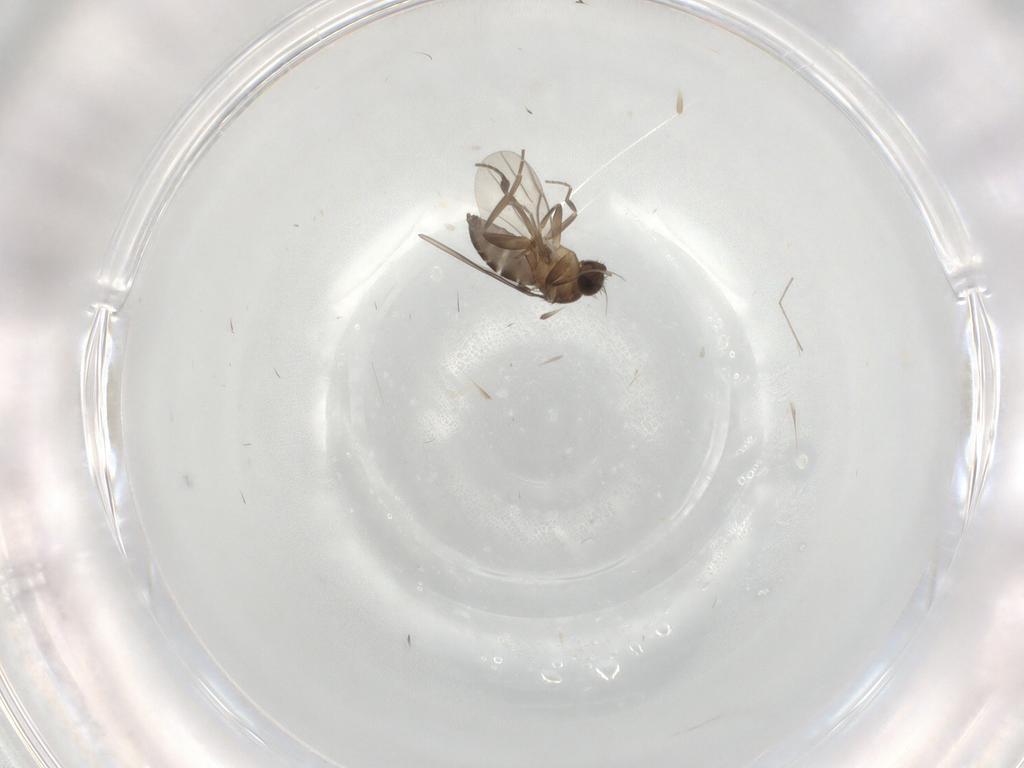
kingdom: Animalia
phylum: Arthropoda
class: Insecta
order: Diptera
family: Phoridae
